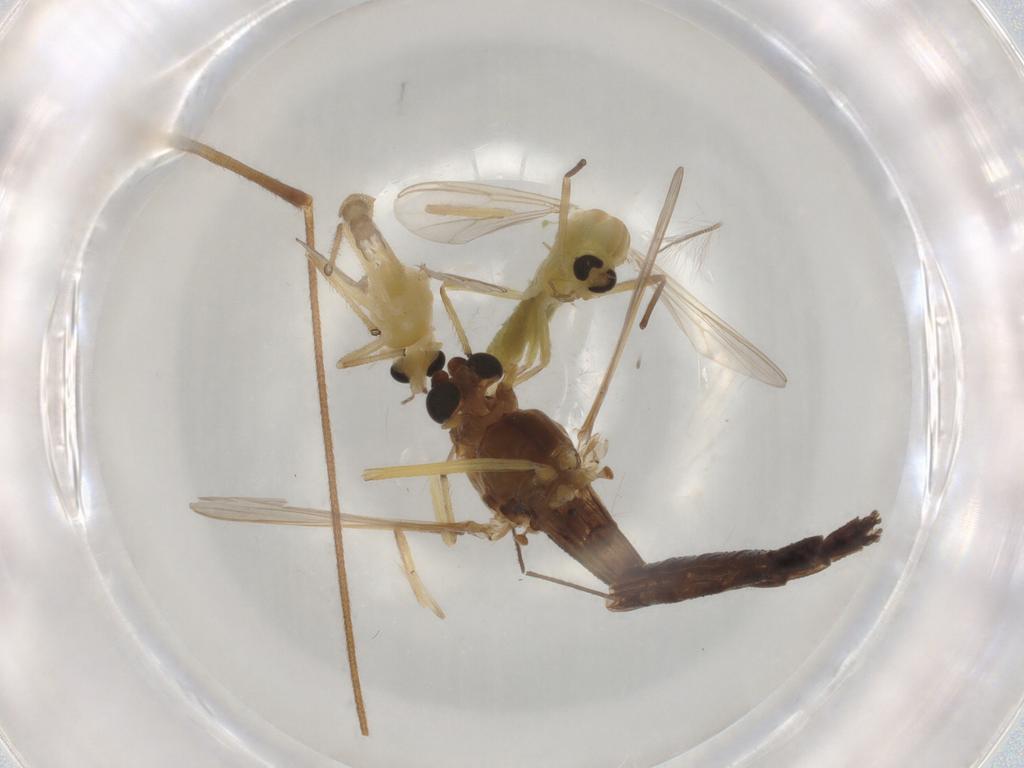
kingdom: Animalia
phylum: Arthropoda
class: Insecta
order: Diptera
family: Chironomidae
